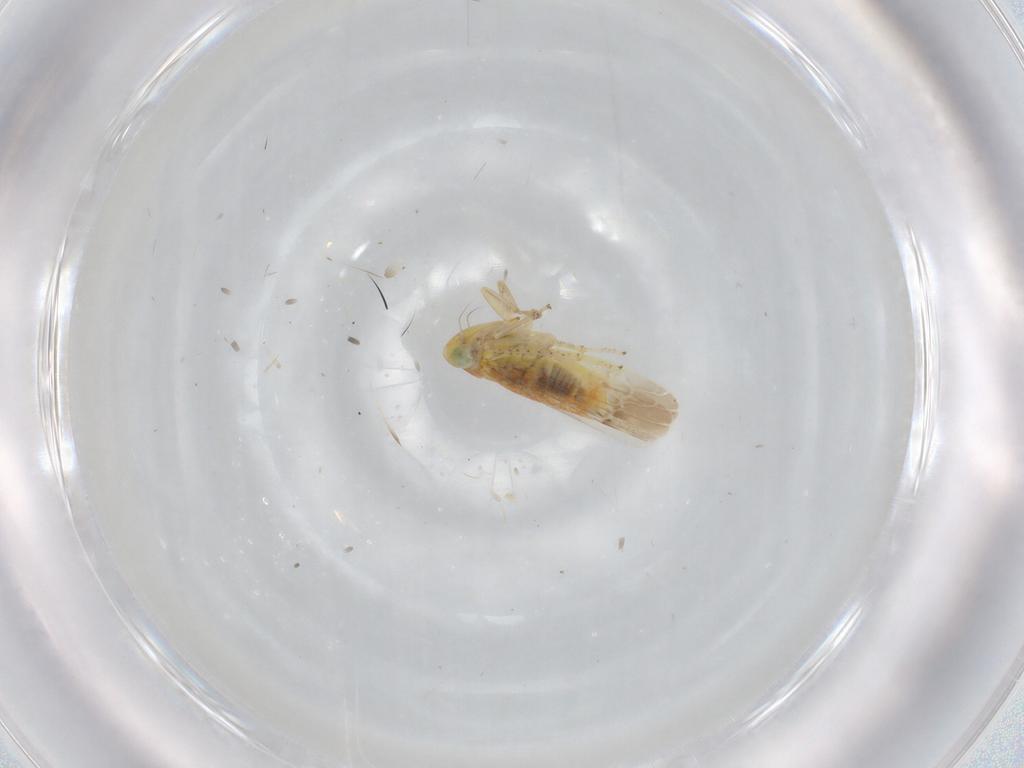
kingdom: Animalia
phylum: Arthropoda
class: Insecta
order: Hemiptera
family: Cicadellidae
